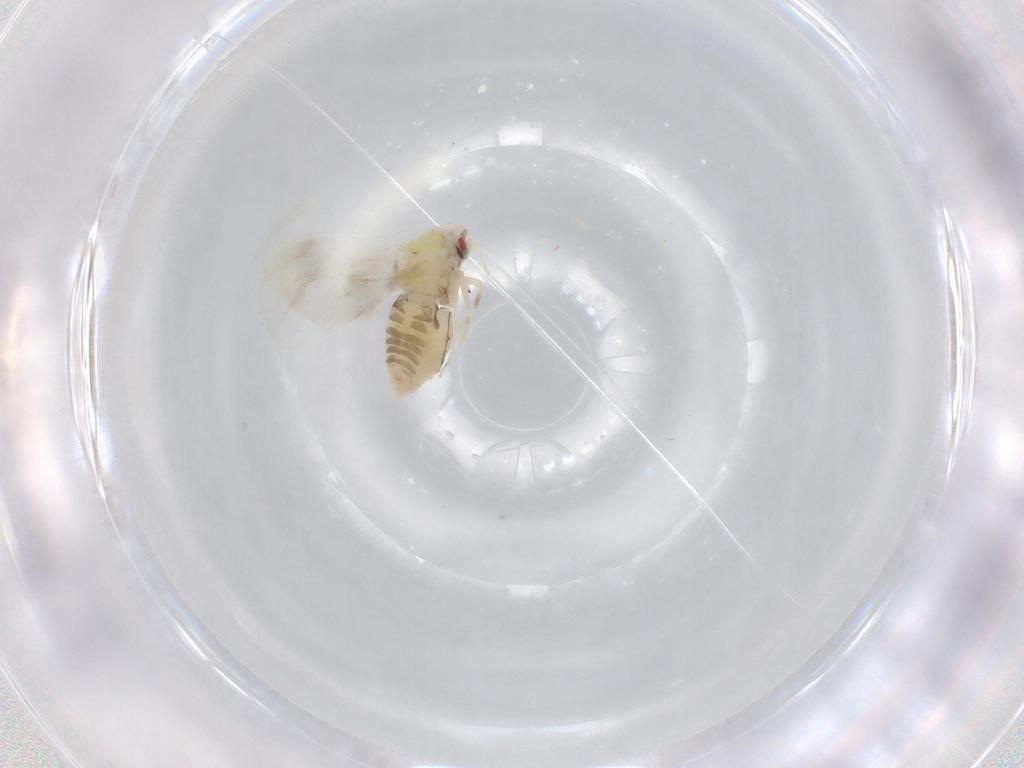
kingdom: Animalia
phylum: Arthropoda
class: Insecta
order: Hemiptera
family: Aleyrodidae
